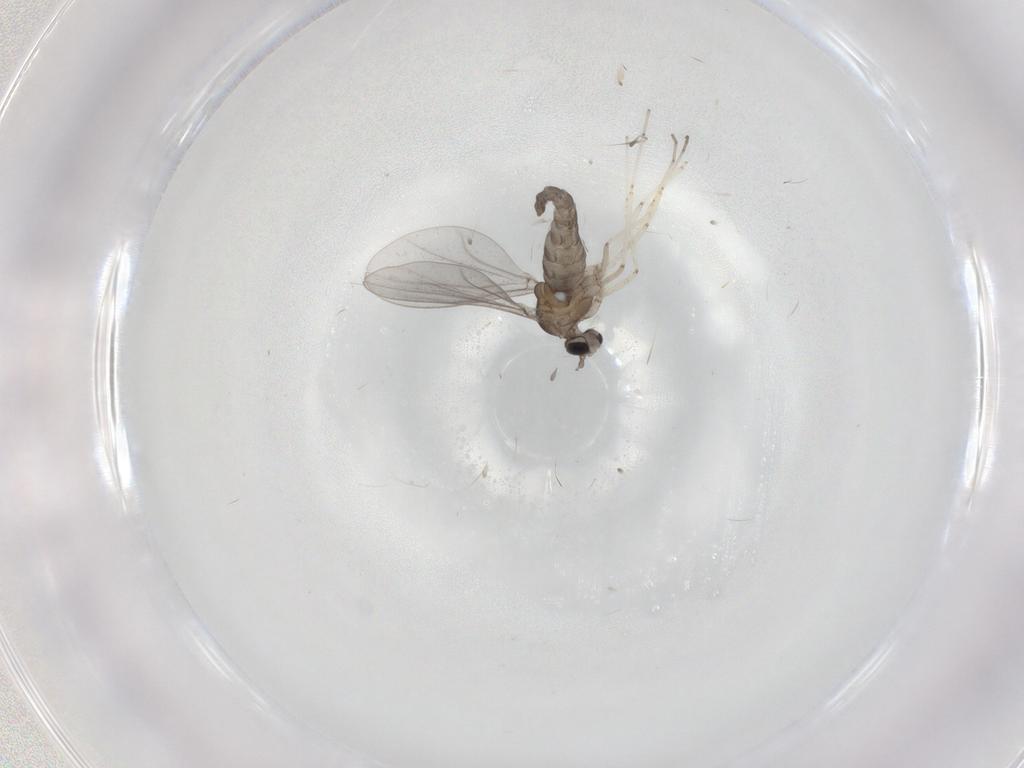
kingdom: Animalia
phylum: Arthropoda
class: Insecta
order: Diptera
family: Cecidomyiidae
